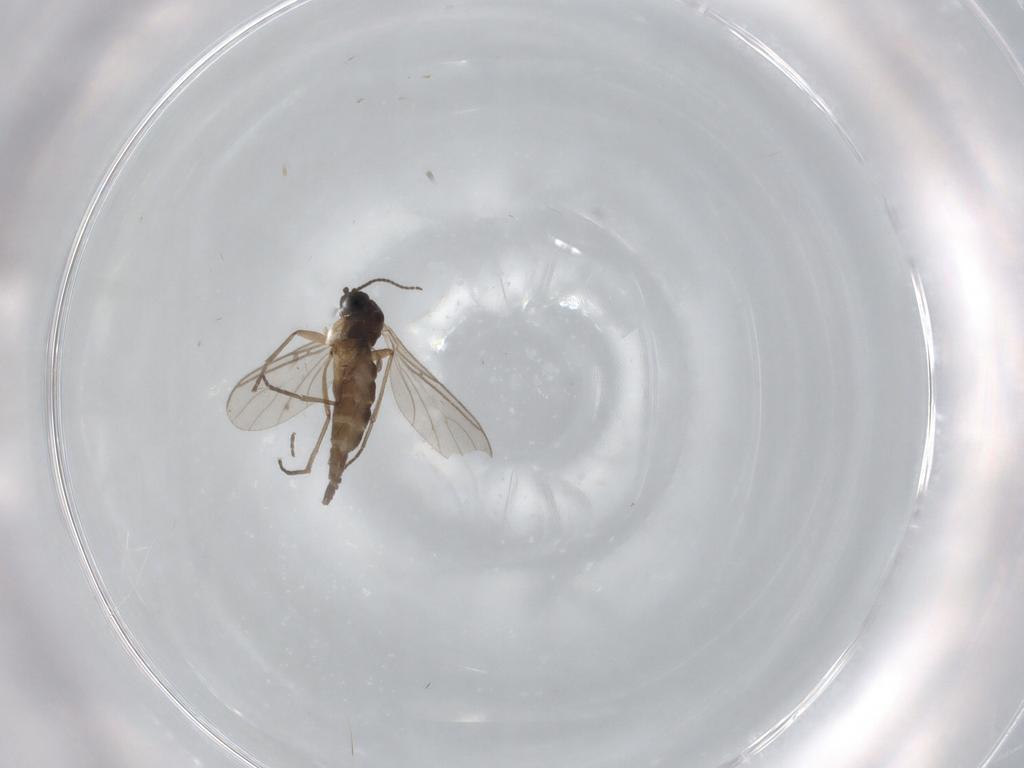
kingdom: Animalia
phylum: Arthropoda
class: Insecta
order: Diptera
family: Sciaridae
